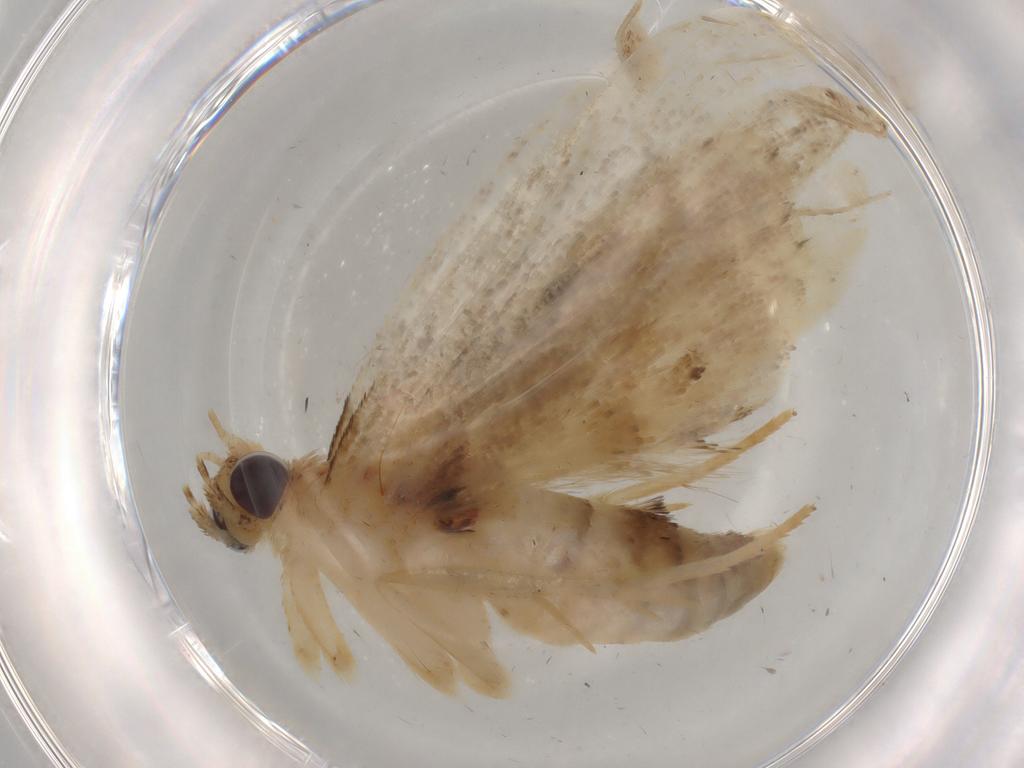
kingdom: Animalia
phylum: Arthropoda
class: Insecta
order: Lepidoptera
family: Erebidae
